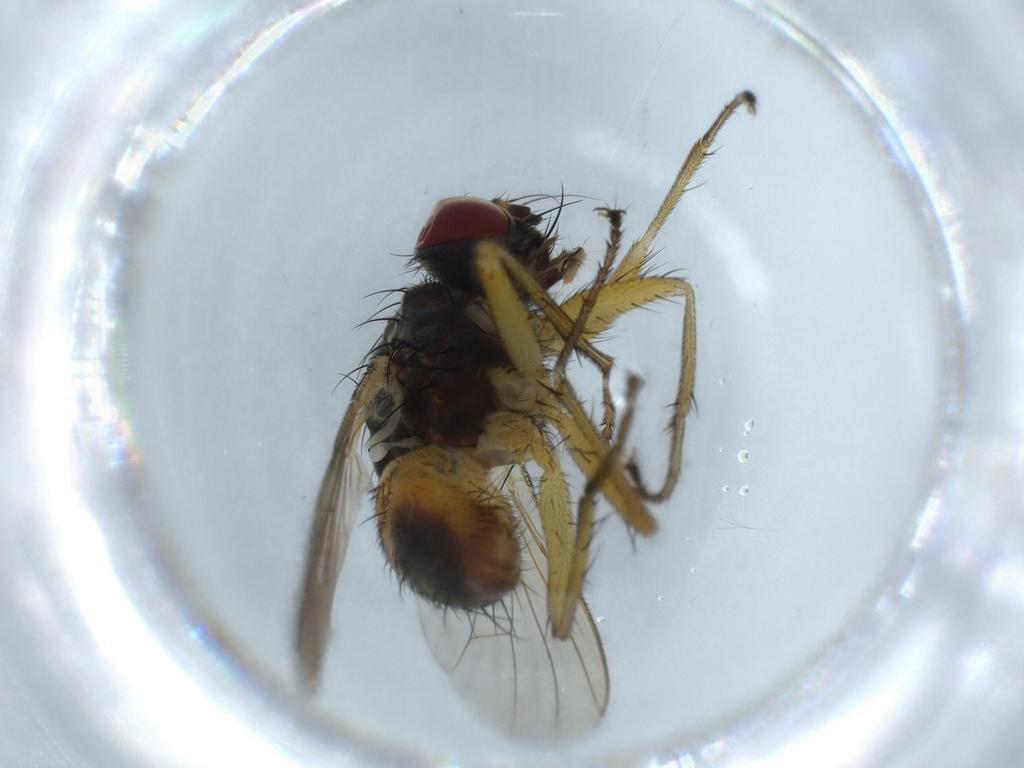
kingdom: Animalia
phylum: Arthropoda
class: Insecta
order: Diptera
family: Muscidae
